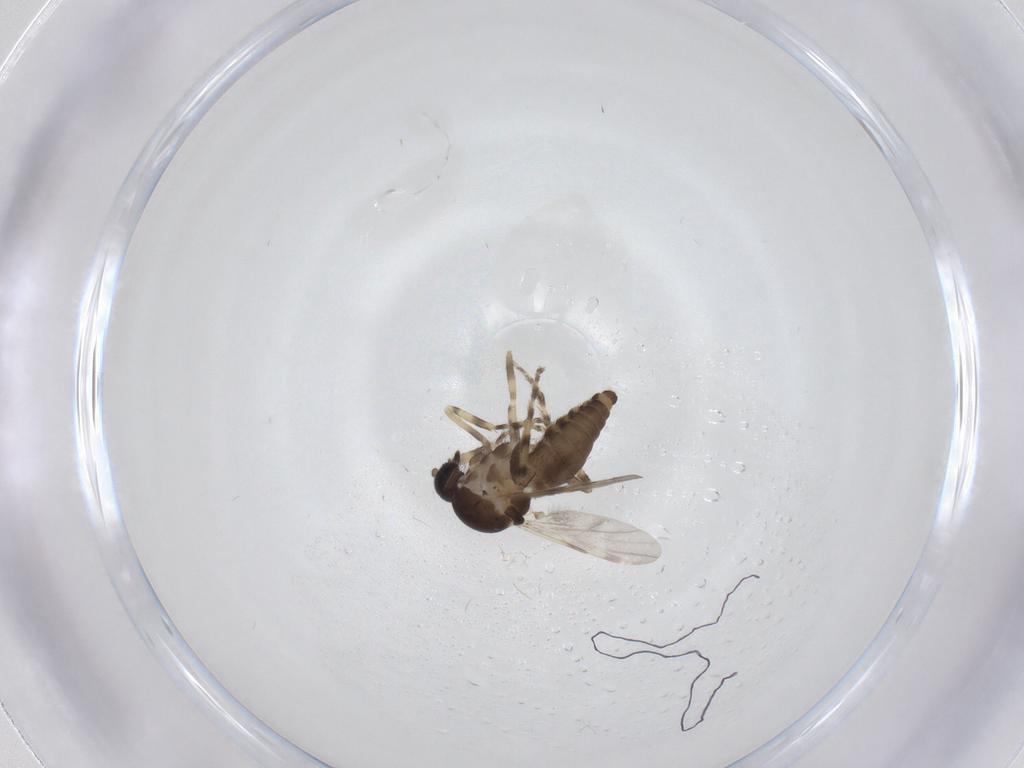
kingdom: Animalia
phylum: Arthropoda
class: Insecta
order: Diptera
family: Ceratopogonidae
